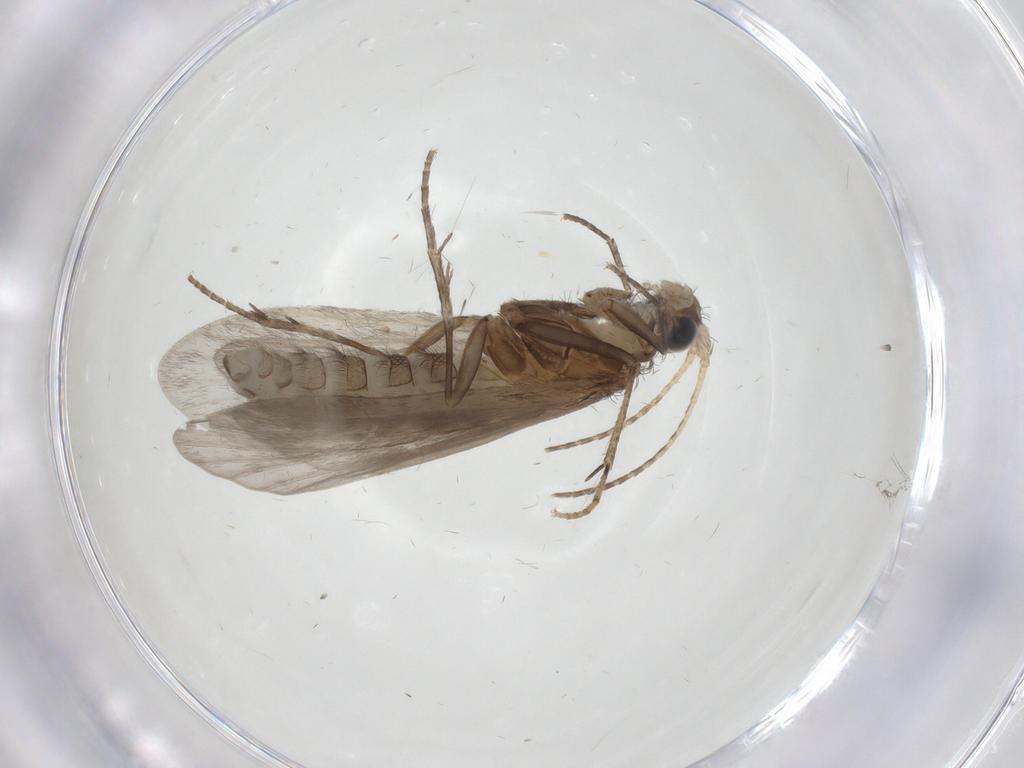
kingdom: Animalia
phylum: Arthropoda
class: Insecta
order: Trichoptera
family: Helicopsychidae
